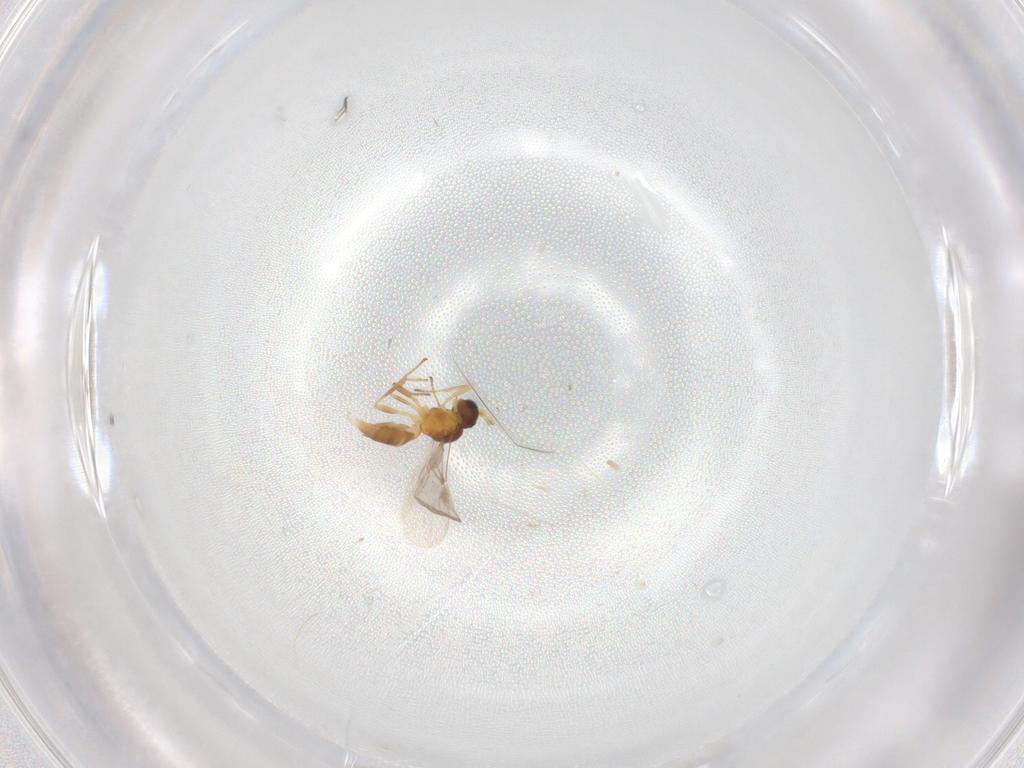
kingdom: Animalia
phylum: Arthropoda
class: Insecta
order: Hymenoptera
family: Braconidae
